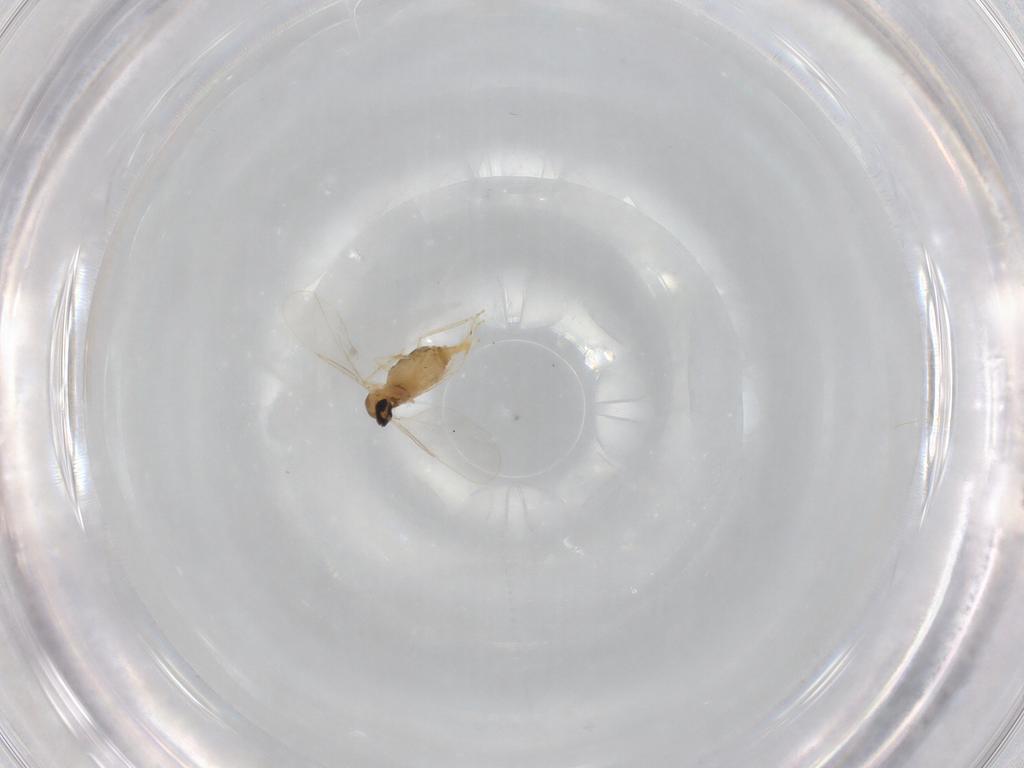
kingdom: Animalia
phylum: Arthropoda
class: Insecta
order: Diptera
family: Cecidomyiidae
